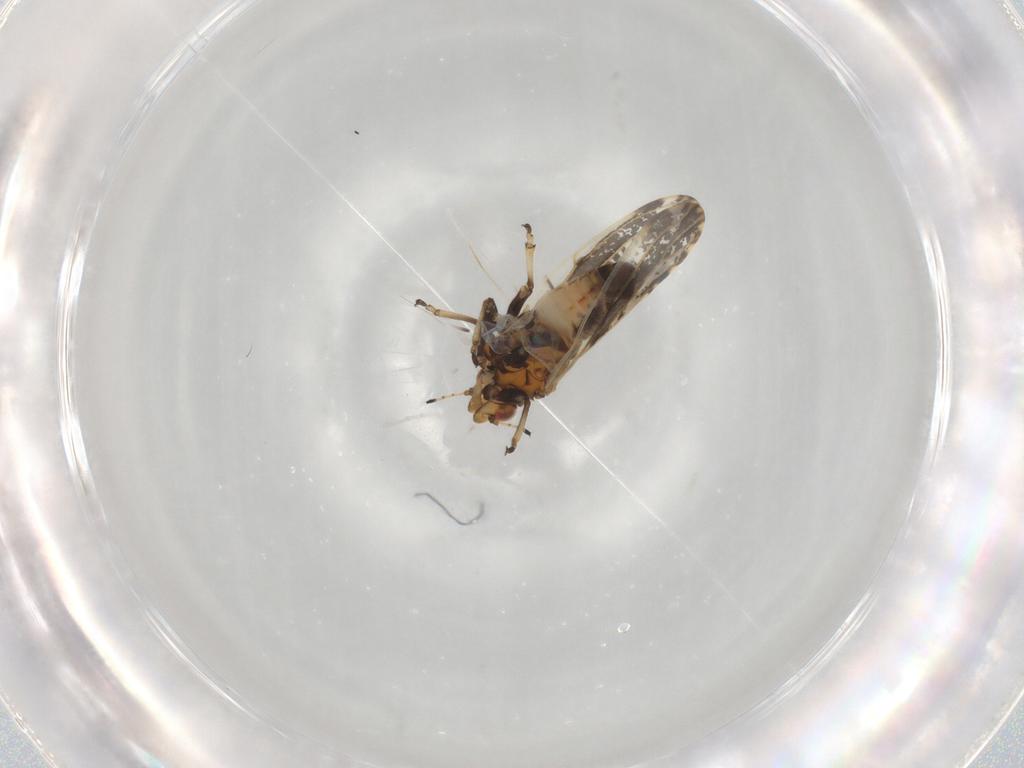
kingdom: Animalia
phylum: Arthropoda
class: Insecta
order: Hemiptera
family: Psylloidea_incertae_sedis
